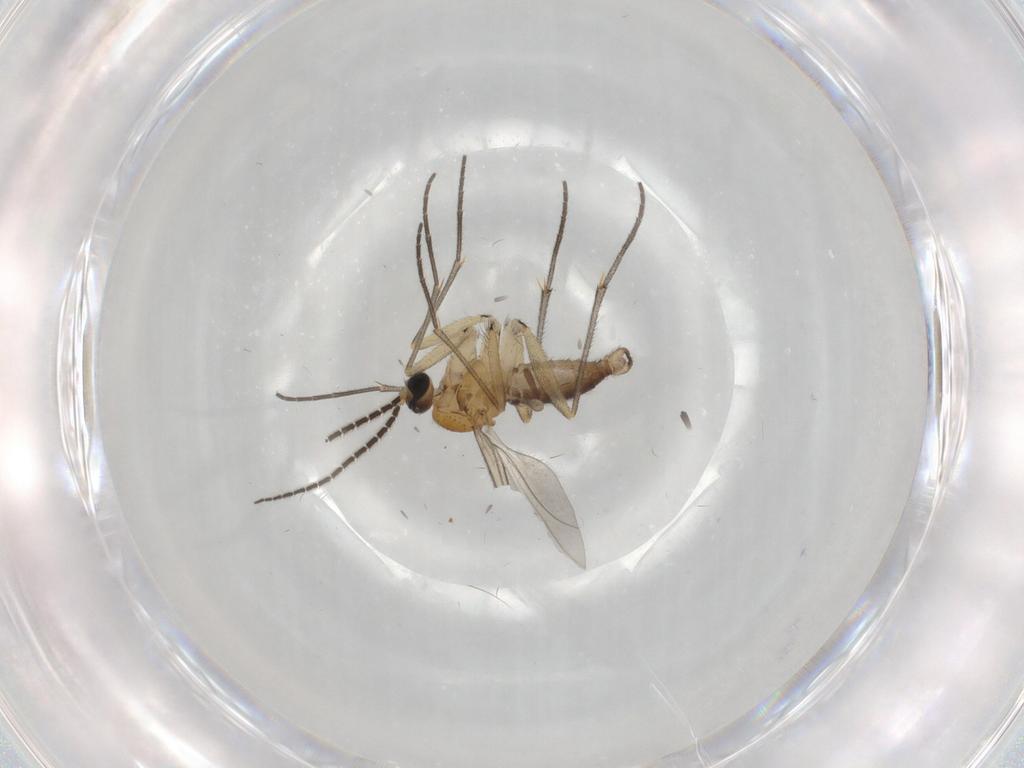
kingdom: Animalia
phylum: Arthropoda
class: Insecta
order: Diptera
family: Sciaridae
